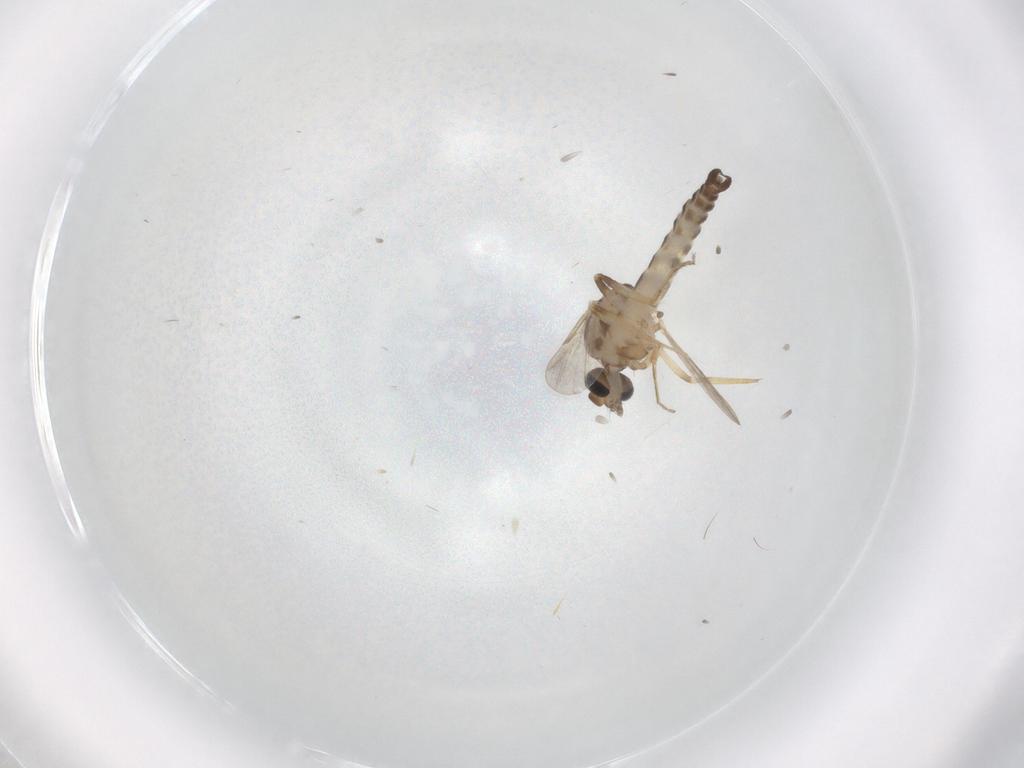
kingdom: Animalia
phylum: Arthropoda
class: Insecta
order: Diptera
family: Ceratopogonidae
